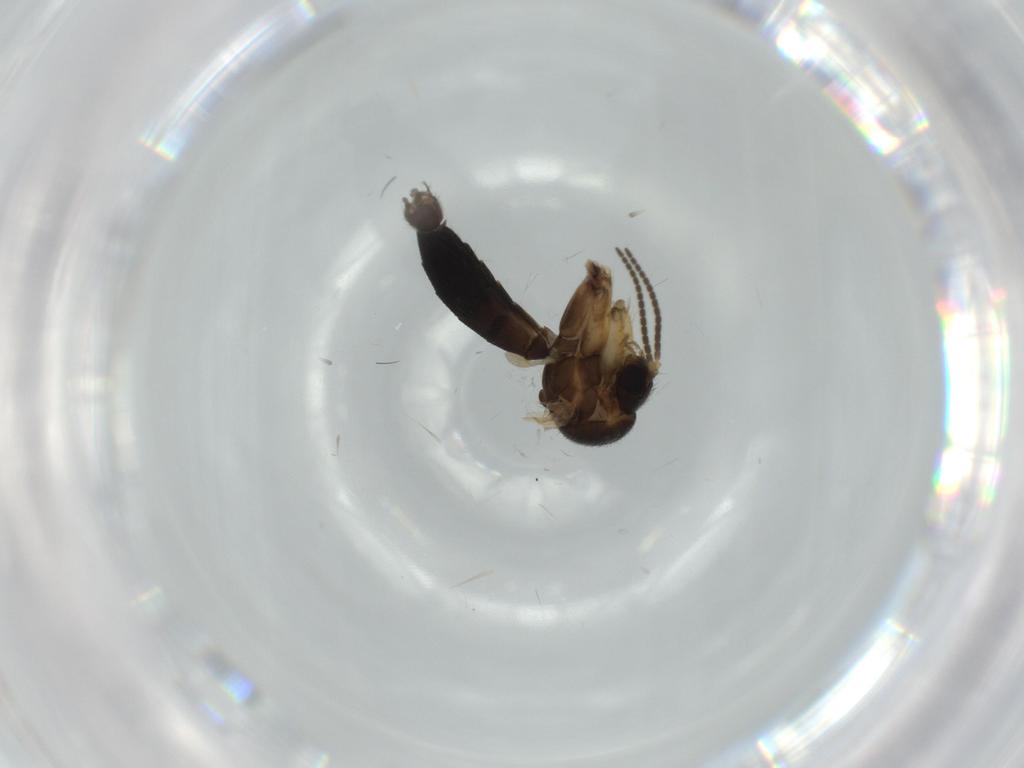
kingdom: Animalia
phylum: Arthropoda
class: Insecta
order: Diptera
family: Cecidomyiidae
